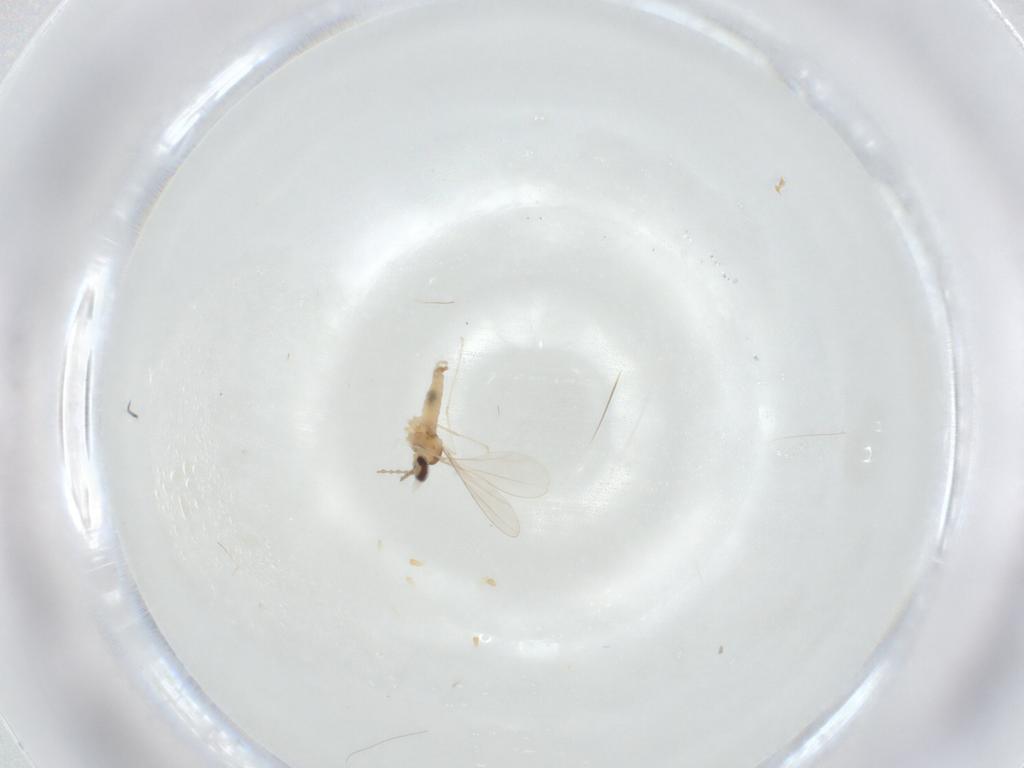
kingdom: Animalia
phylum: Arthropoda
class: Insecta
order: Diptera
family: Cecidomyiidae
